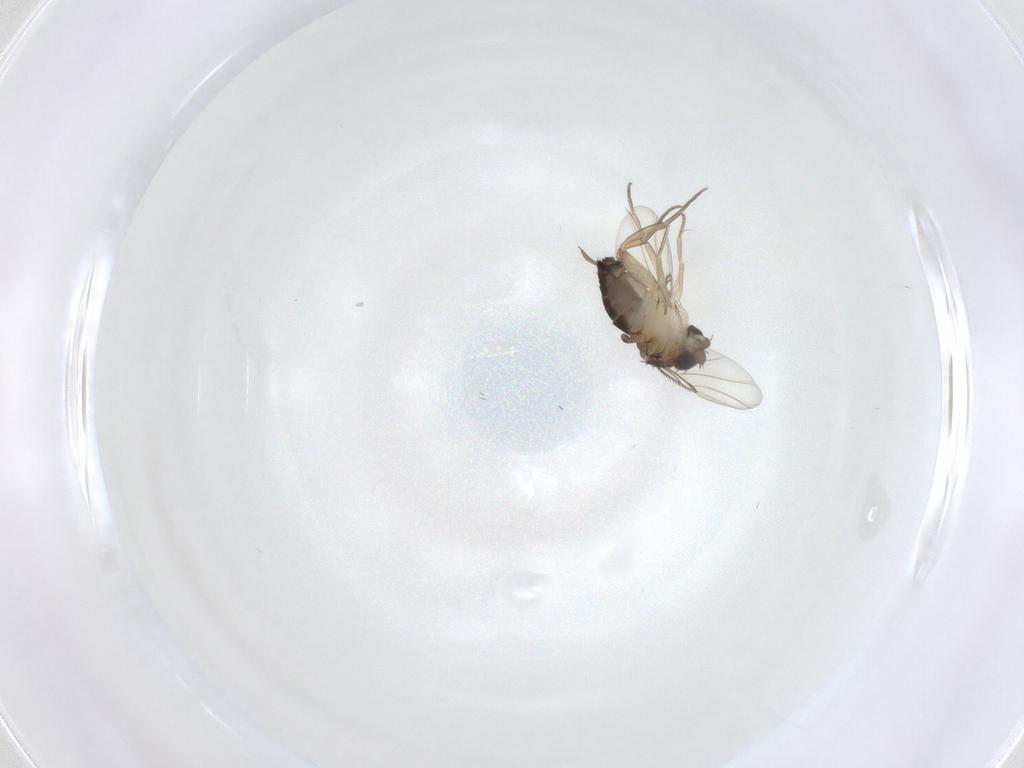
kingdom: Animalia
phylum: Arthropoda
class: Insecta
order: Diptera
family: Phoridae
